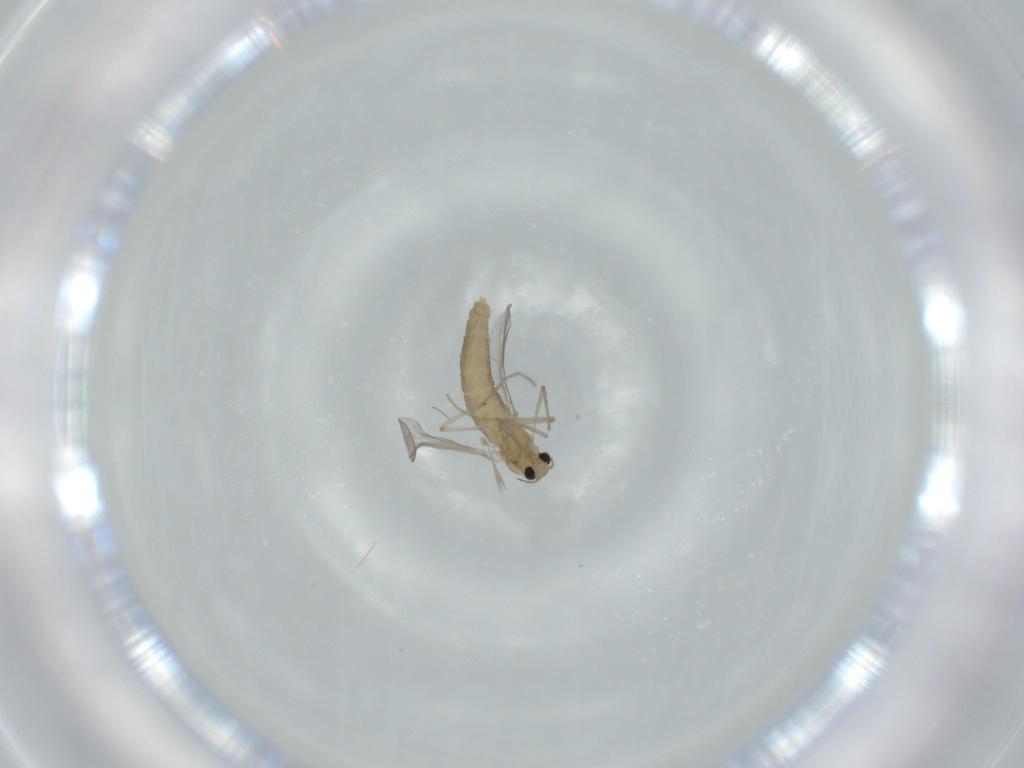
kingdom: Animalia
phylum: Arthropoda
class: Insecta
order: Diptera
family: Chironomidae
